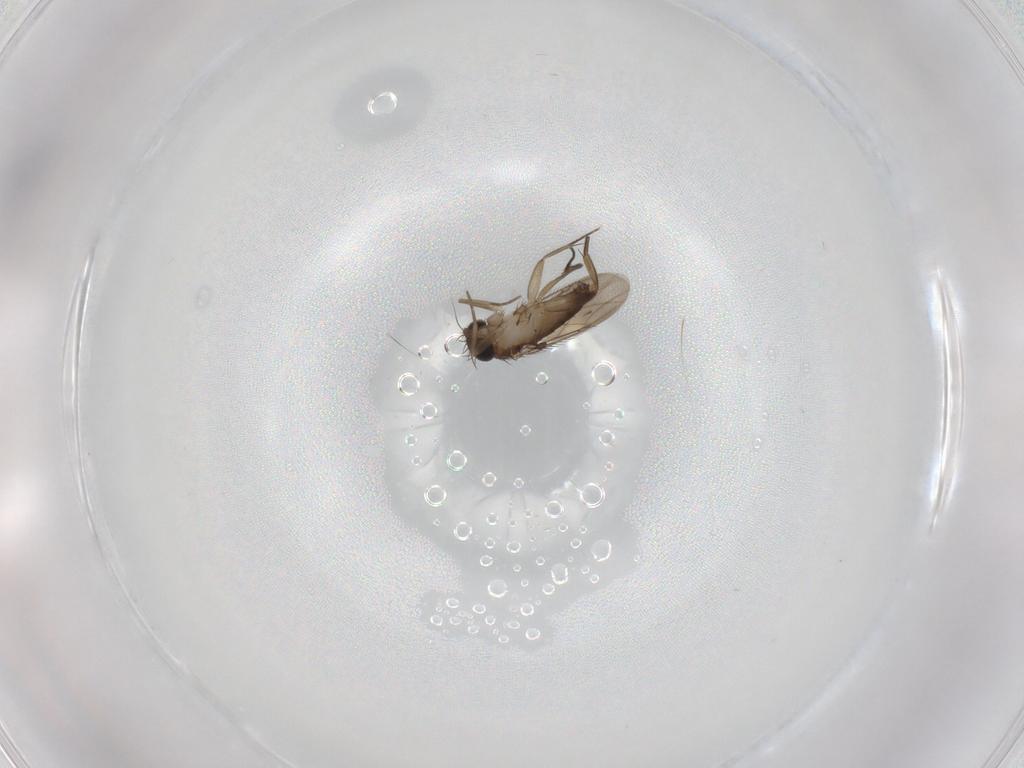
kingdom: Animalia
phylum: Arthropoda
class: Insecta
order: Diptera
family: Phoridae
